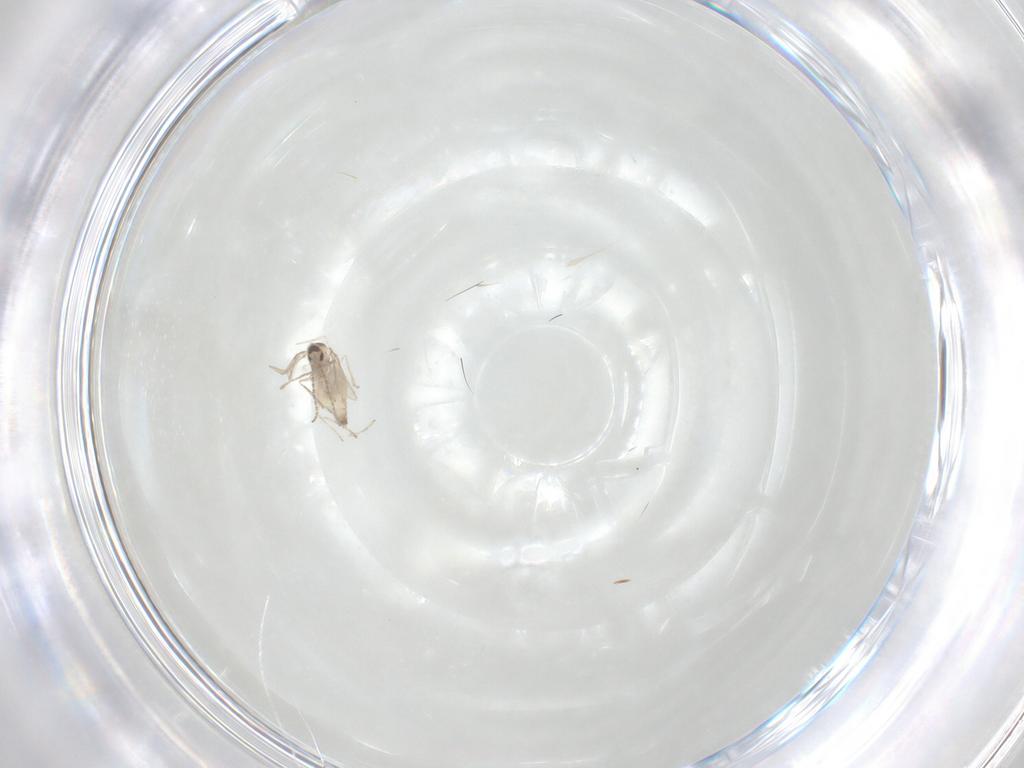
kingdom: Animalia
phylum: Arthropoda
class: Insecta
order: Diptera
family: Cecidomyiidae
